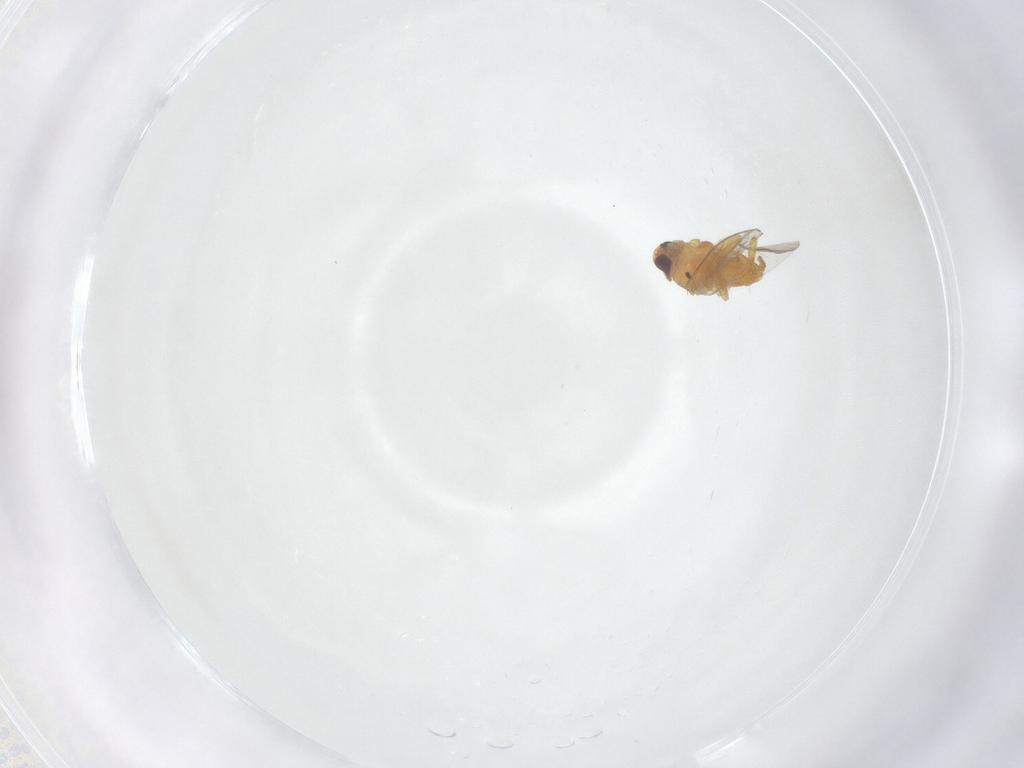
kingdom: Animalia
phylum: Arthropoda
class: Insecta
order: Diptera
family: Chloropidae
